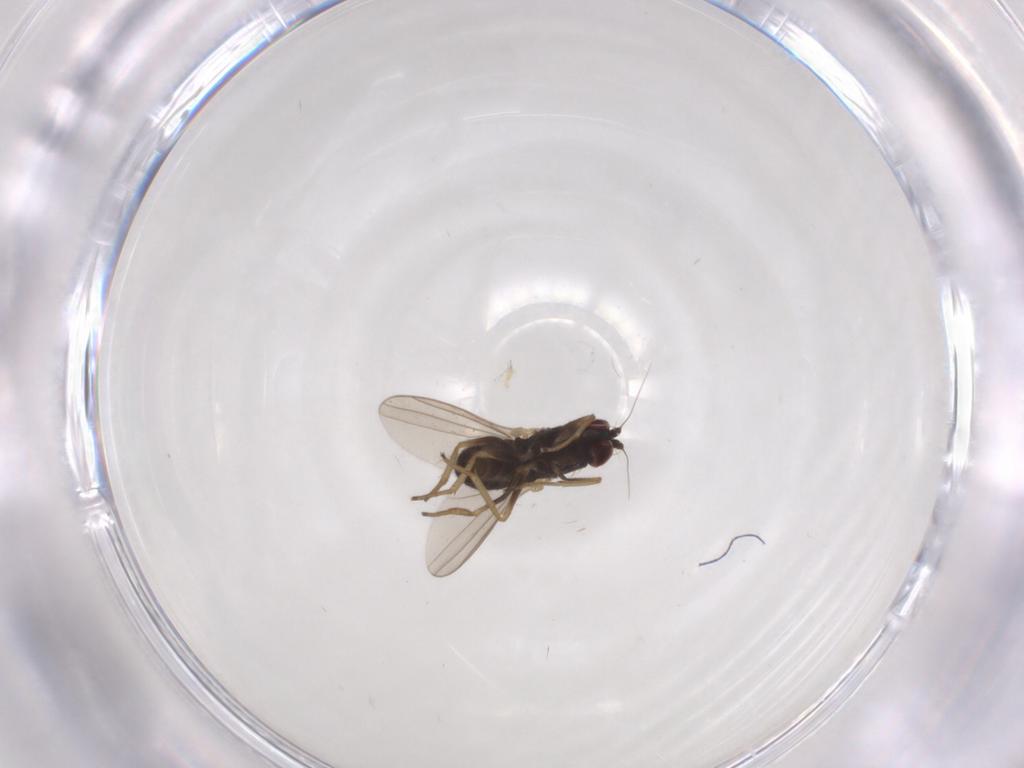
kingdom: Animalia
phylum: Arthropoda
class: Insecta
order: Diptera
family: Dolichopodidae
